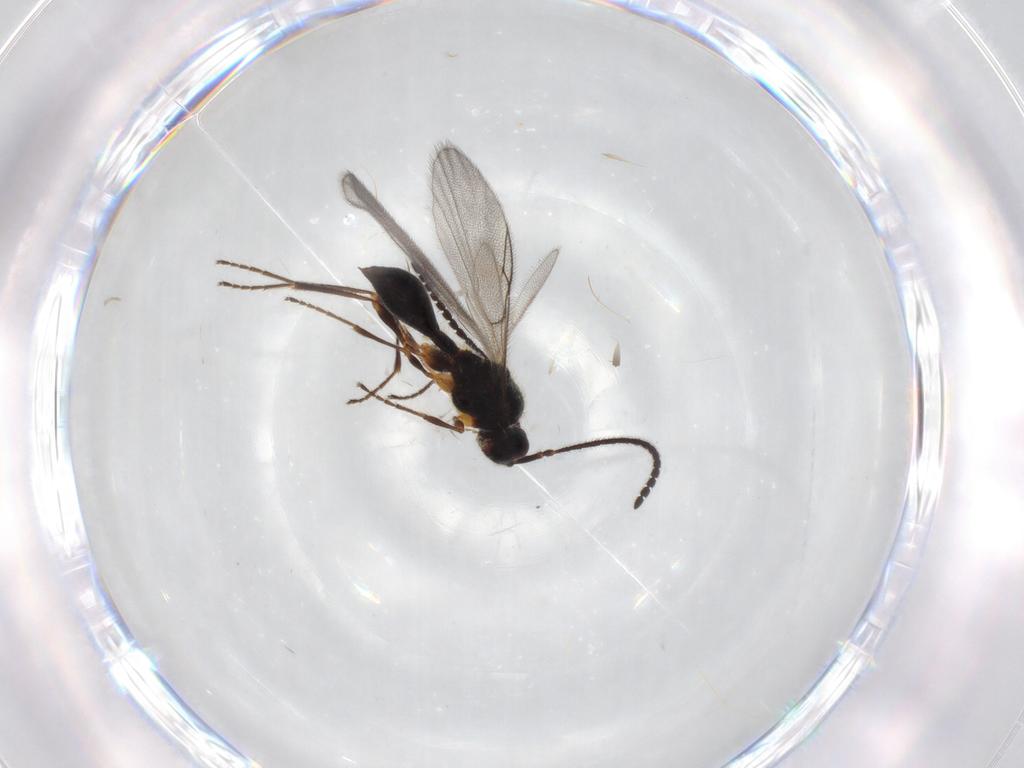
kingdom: Animalia
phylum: Arthropoda
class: Insecta
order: Hymenoptera
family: Diapriidae
